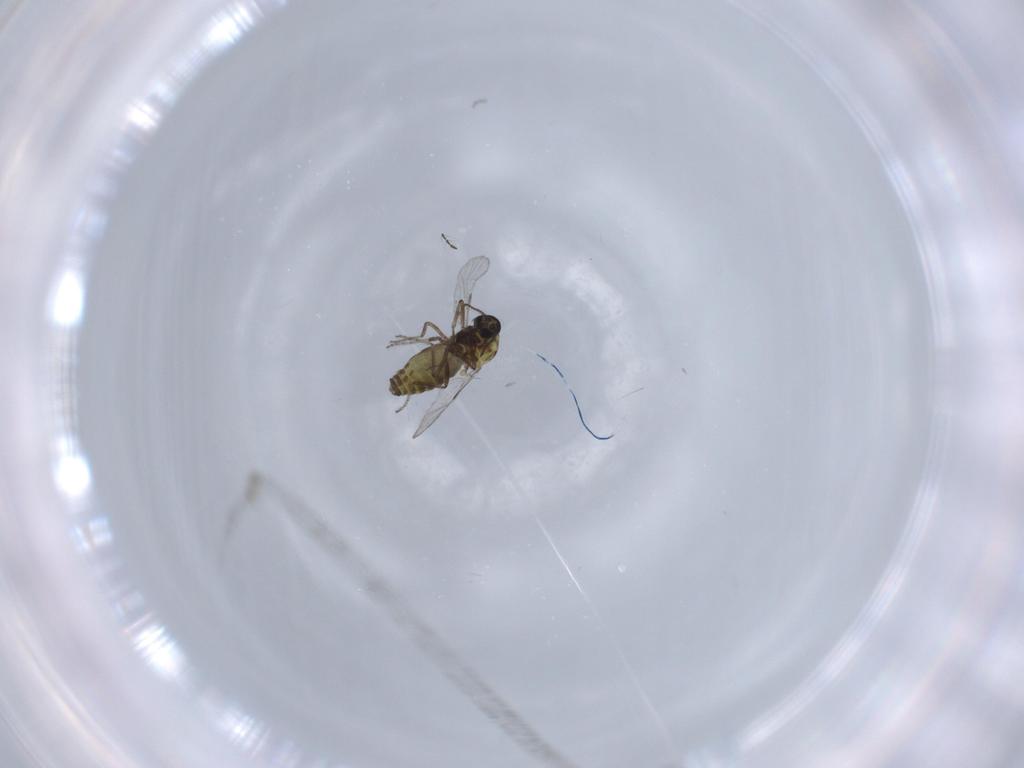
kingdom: Animalia
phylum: Arthropoda
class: Insecta
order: Diptera
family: Ceratopogonidae
